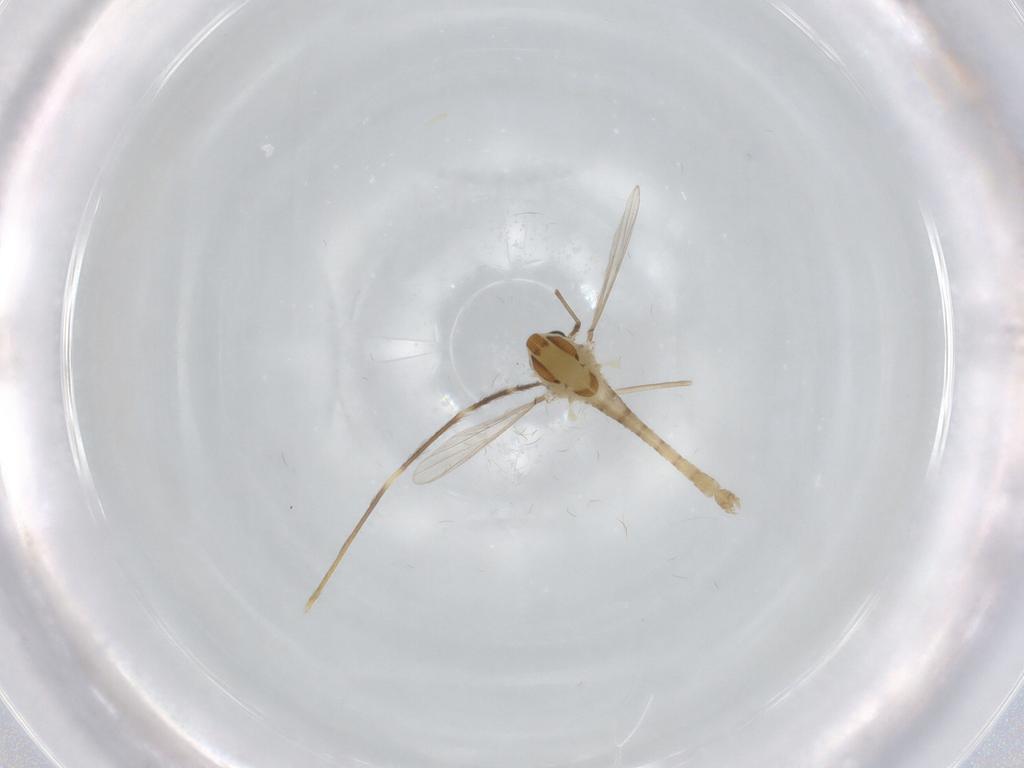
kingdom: Animalia
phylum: Arthropoda
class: Insecta
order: Diptera
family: Chironomidae
